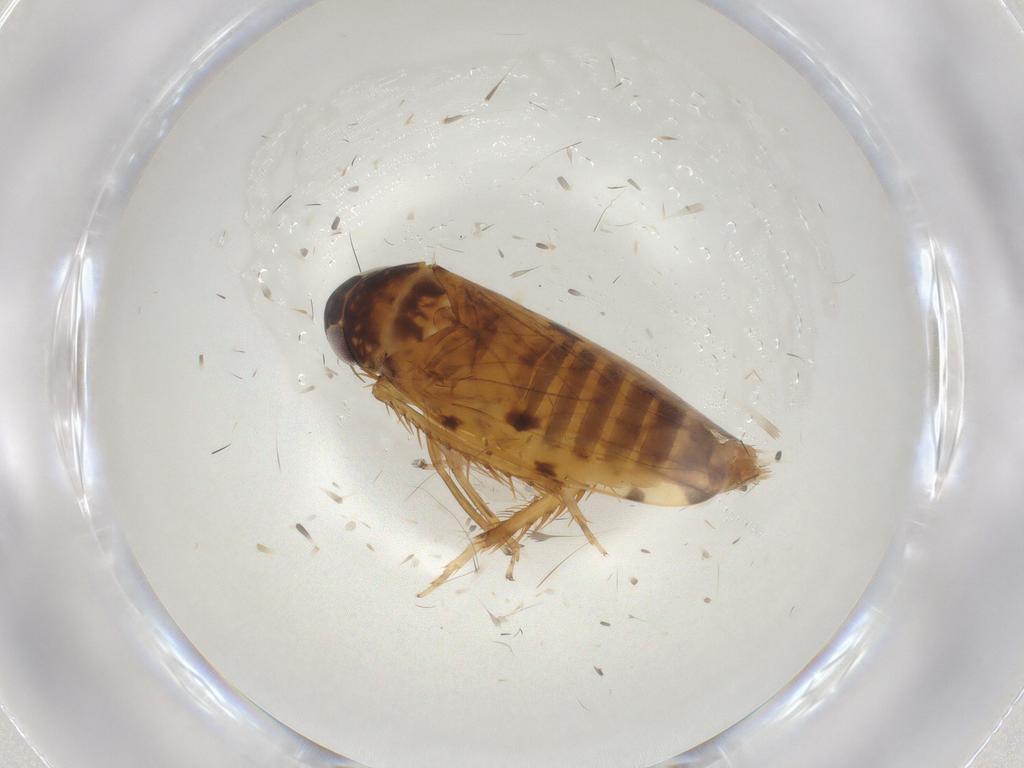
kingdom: Animalia
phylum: Arthropoda
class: Insecta
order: Hemiptera
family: Cicadellidae
